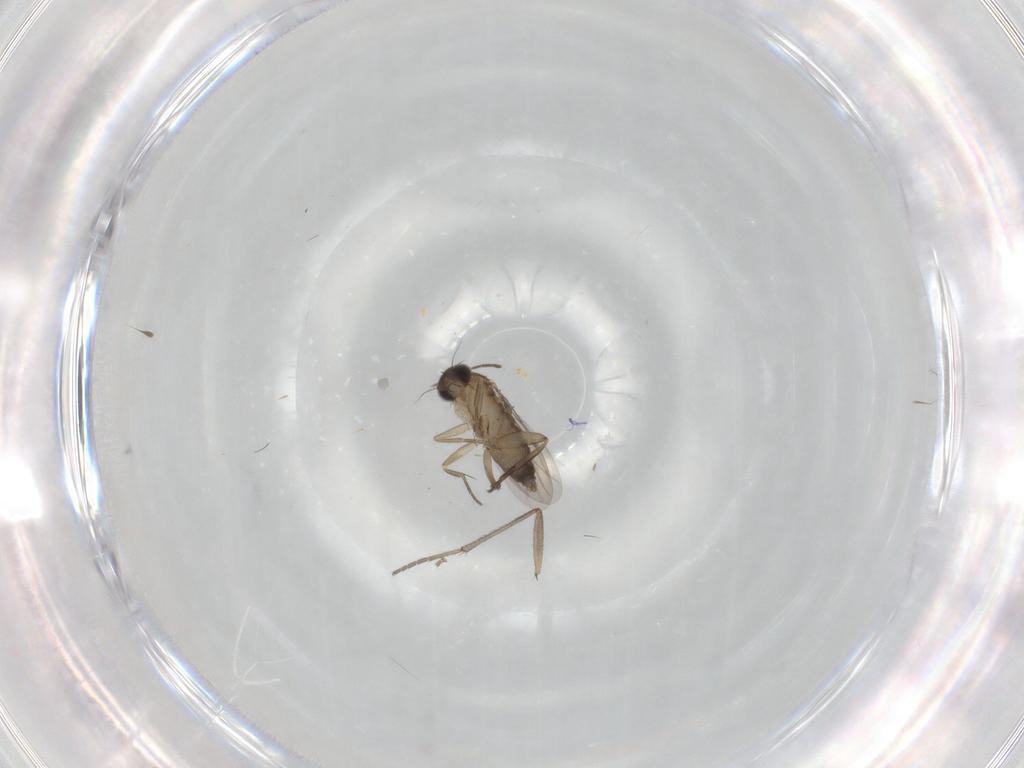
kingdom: Animalia
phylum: Arthropoda
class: Insecta
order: Diptera
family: Phoridae
